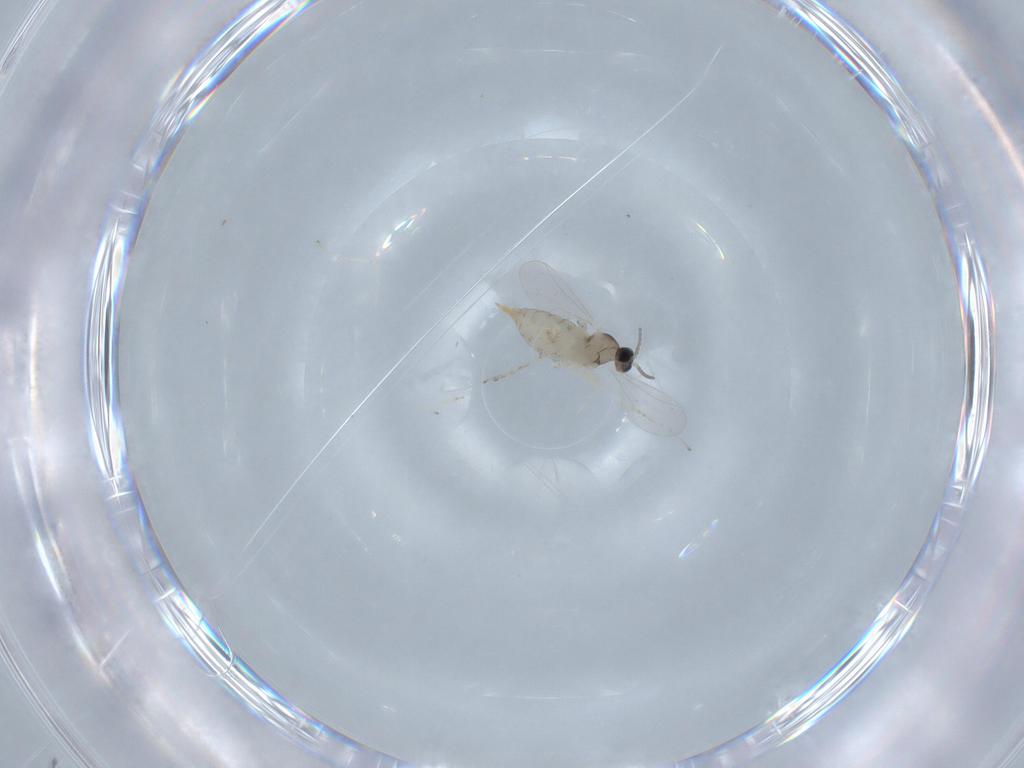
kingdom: Animalia
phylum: Arthropoda
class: Insecta
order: Diptera
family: Cecidomyiidae
